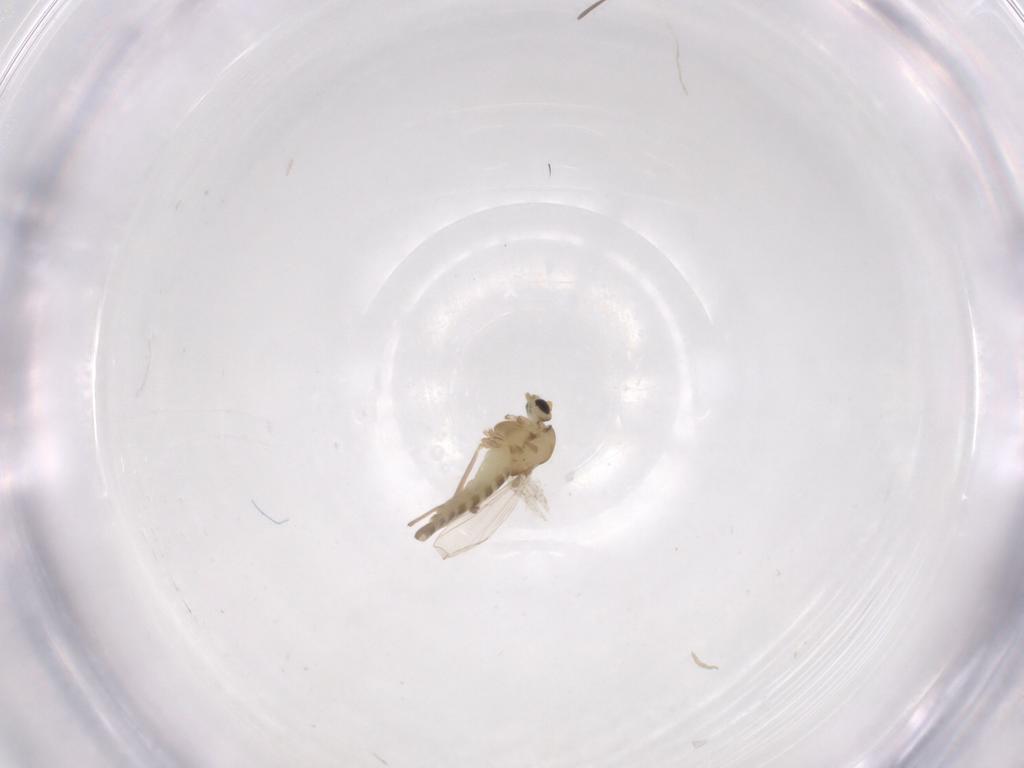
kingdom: Animalia
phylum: Arthropoda
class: Insecta
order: Diptera
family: Chironomidae
